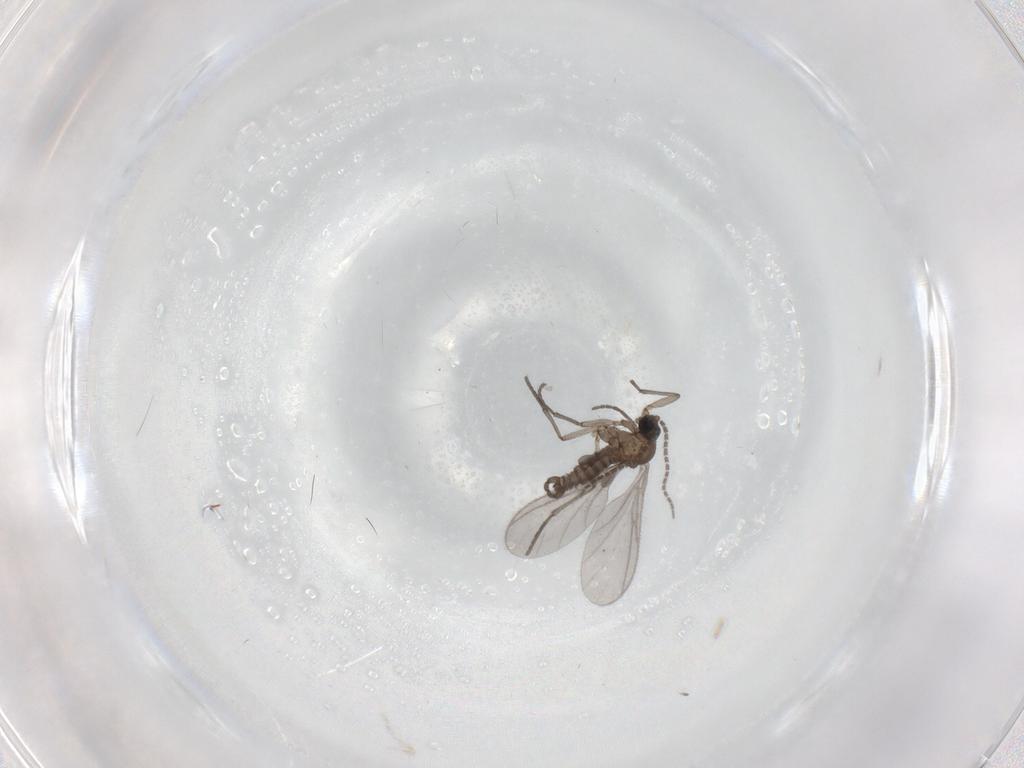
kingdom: Animalia
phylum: Arthropoda
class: Insecta
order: Diptera
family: Sciaridae
